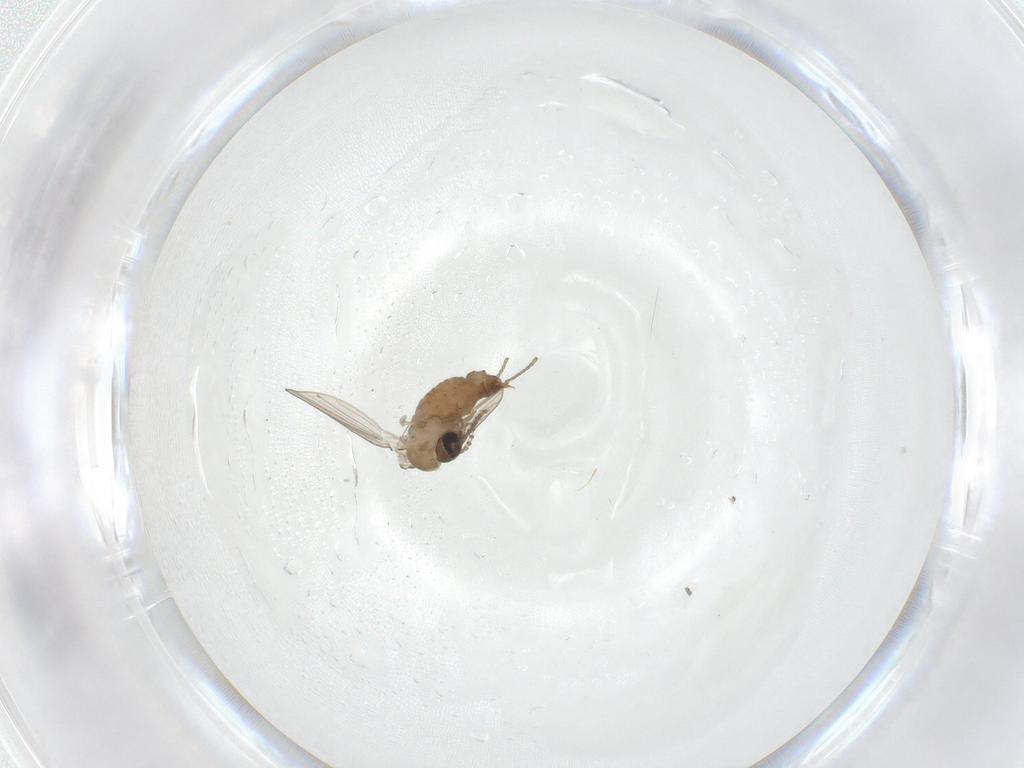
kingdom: Animalia
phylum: Arthropoda
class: Insecta
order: Diptera
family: Psychodidae
